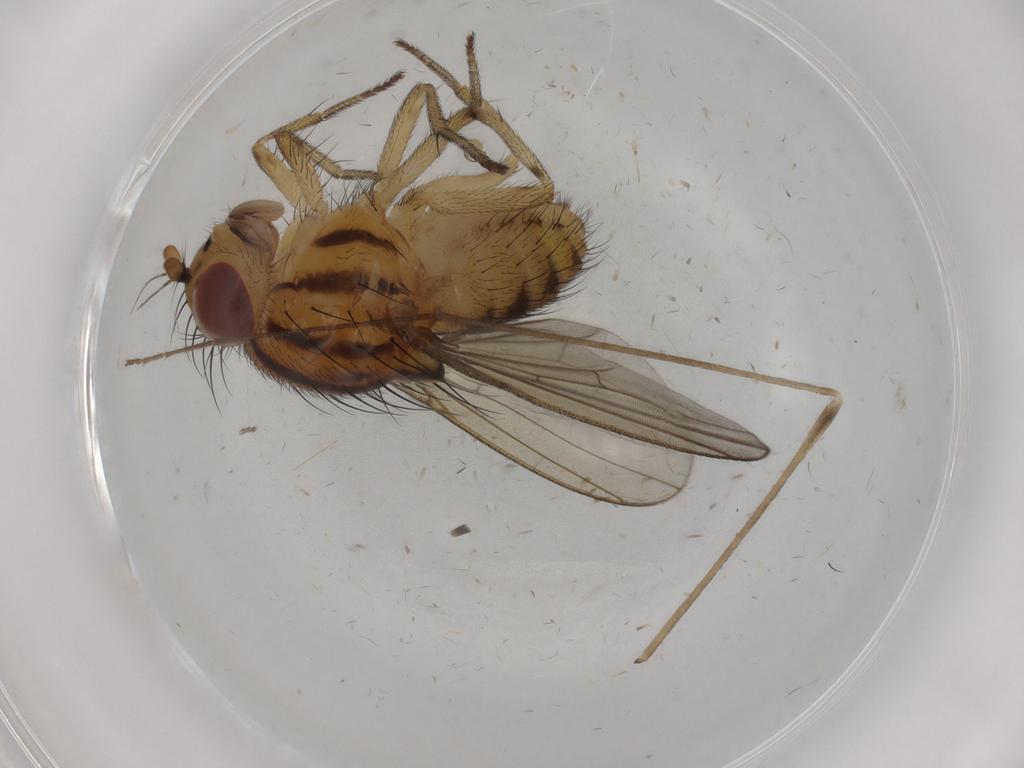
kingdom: Animalia
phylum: Arthropoda
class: Insecta
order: Diptera
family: Limoniidae
